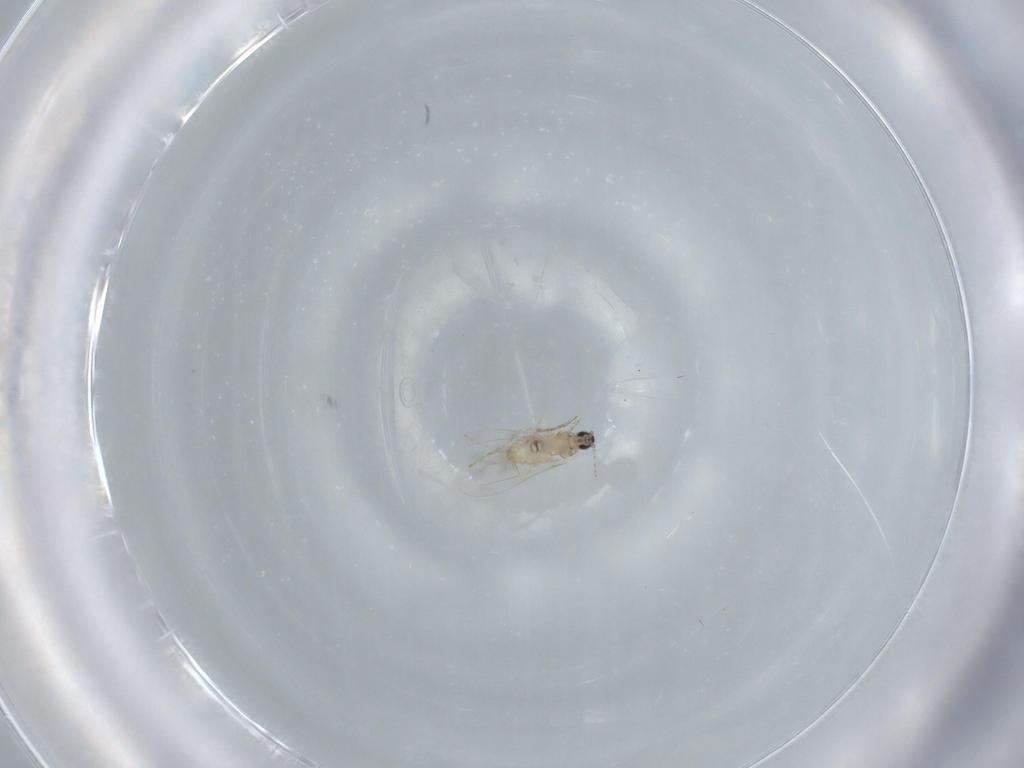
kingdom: Animalia
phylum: Arthropoda
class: Insecta
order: Diptera
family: Cecidomyiidae
